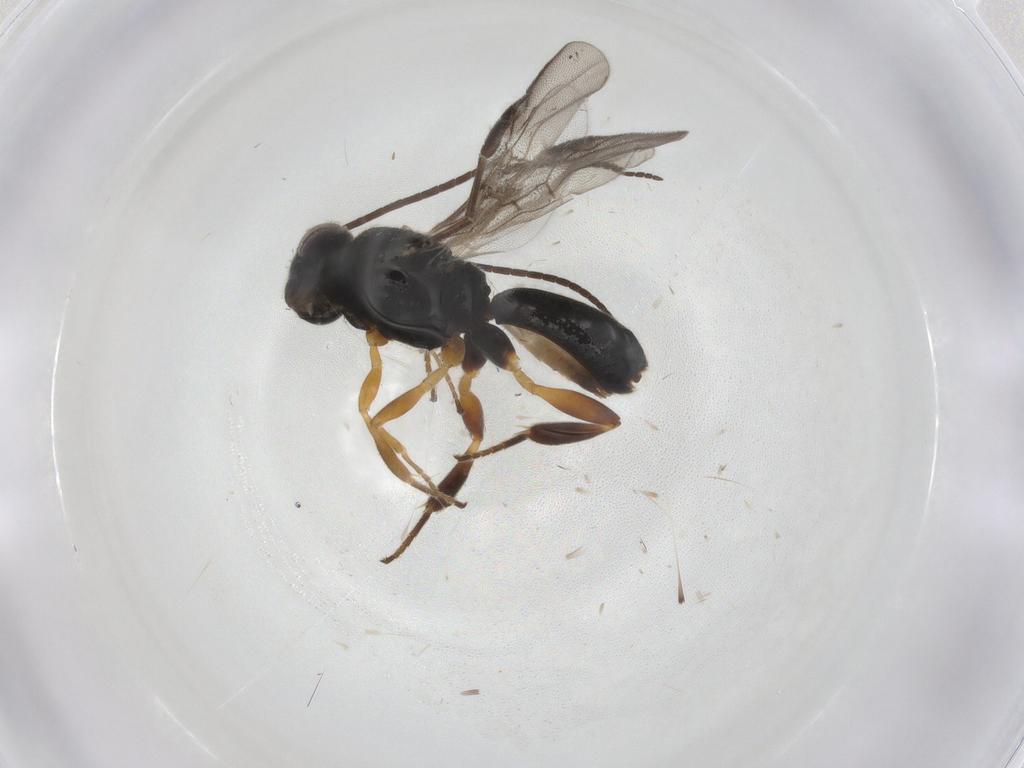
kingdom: Animalia
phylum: Arthropoda
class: Insecta
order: Hymenoptera
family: Braconidae
